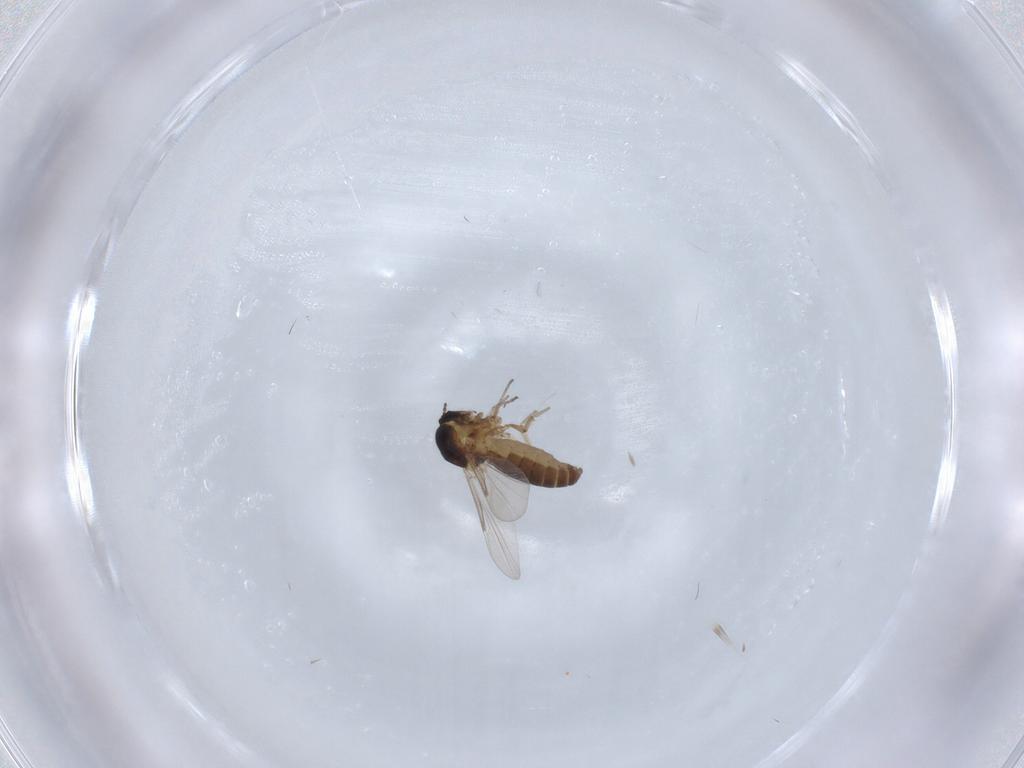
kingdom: Animalia
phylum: Arthropoda
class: Insecta
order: Diptera
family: Ceratopogonidae
